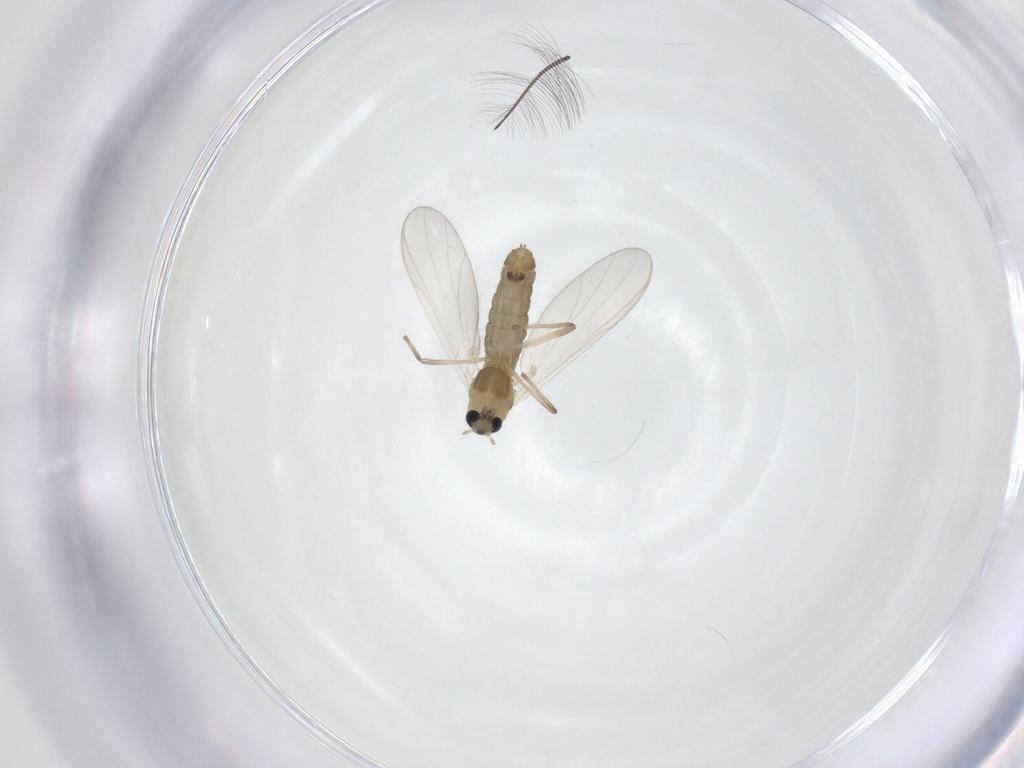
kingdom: Animalia
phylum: Arthropoda
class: Insecta
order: Diptera
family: Chironomidae
